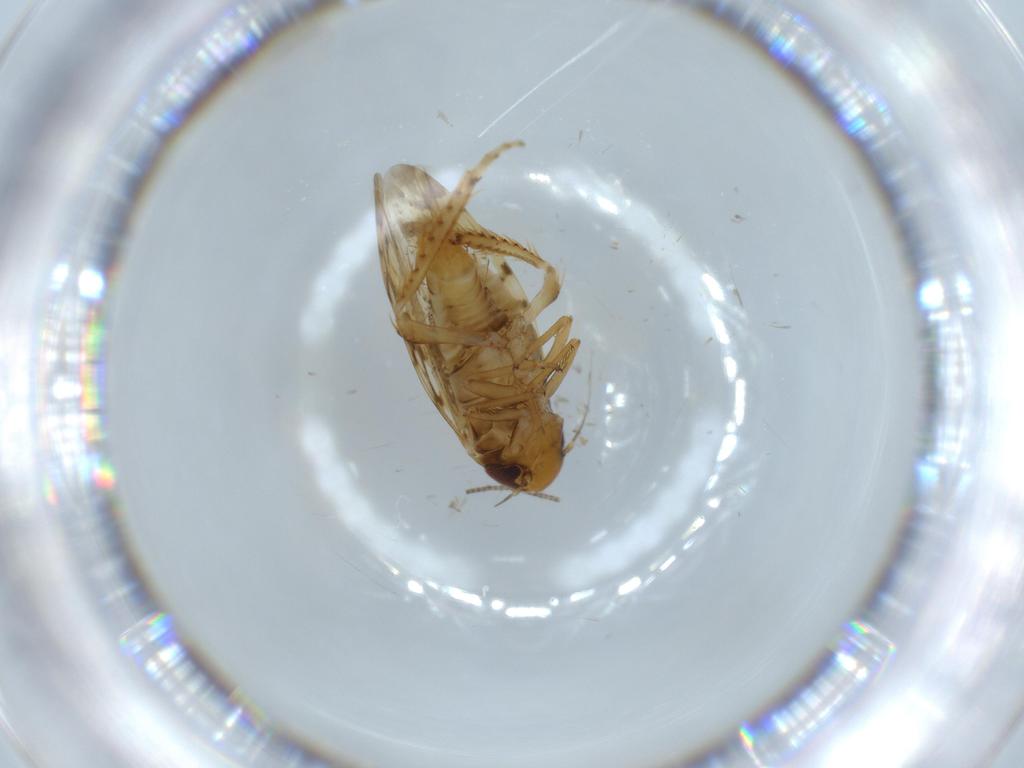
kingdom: Animalia
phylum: Arthropoda
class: Insecta
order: Hemiptera
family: Cicadellidae
